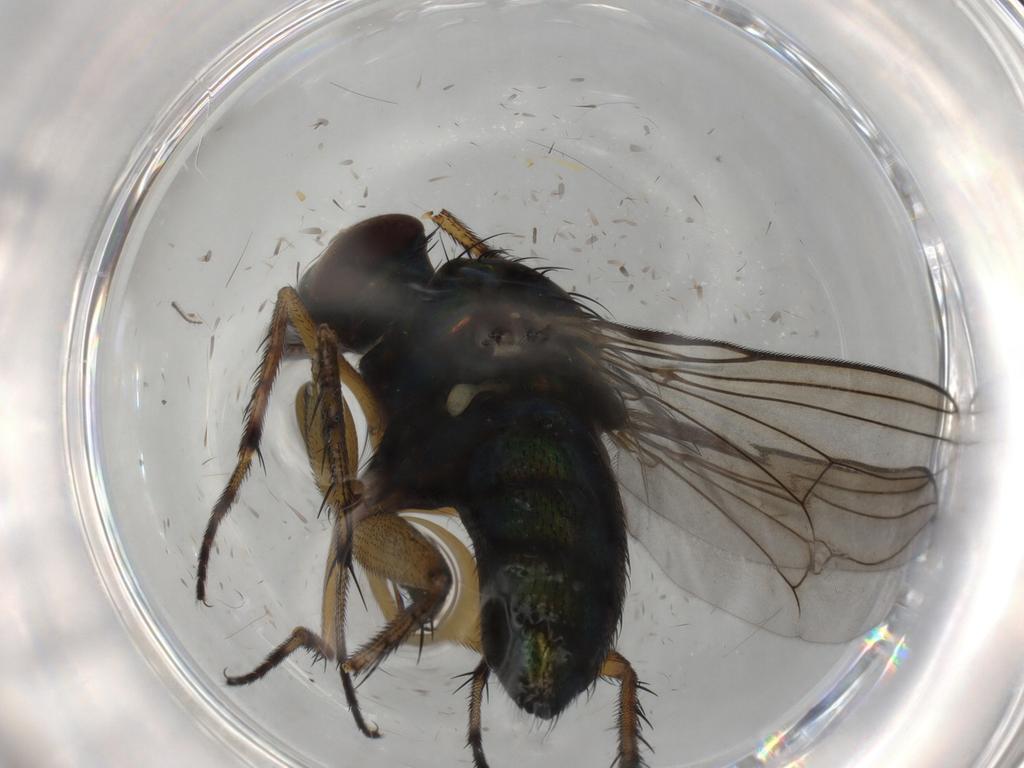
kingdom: Animalia
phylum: Arthropoda
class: Insecta
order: Diptera
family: Dolichopodidae
